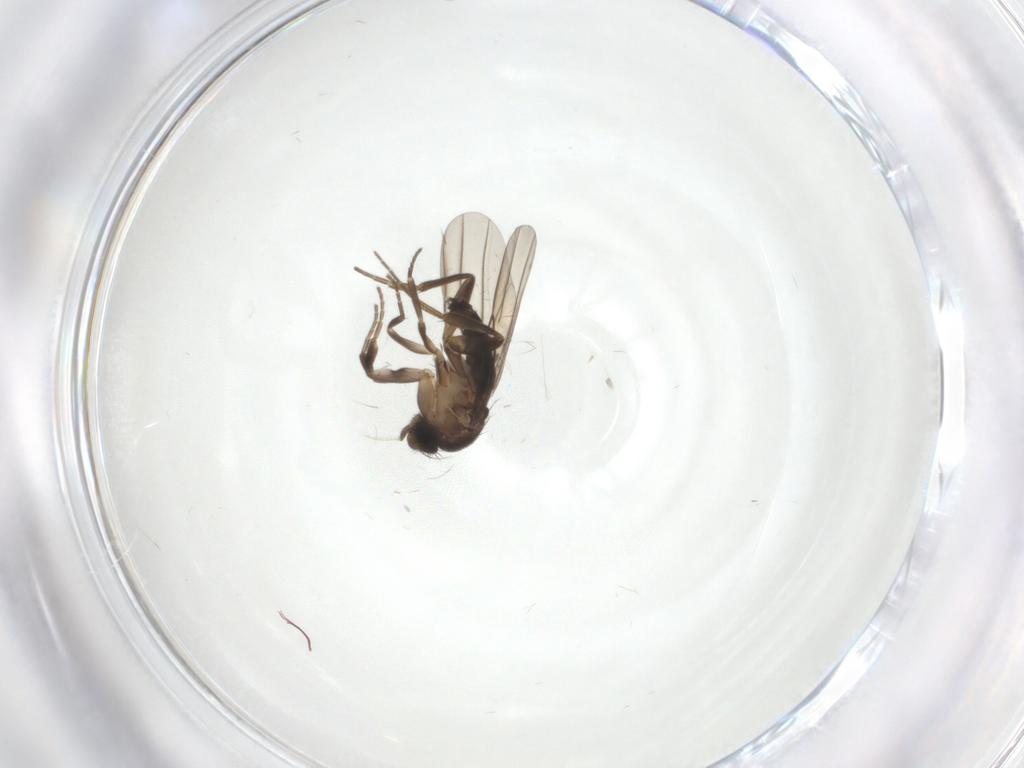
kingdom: Animalia
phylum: Arthropoda
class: Insecta
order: Diptera
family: Phoridae
